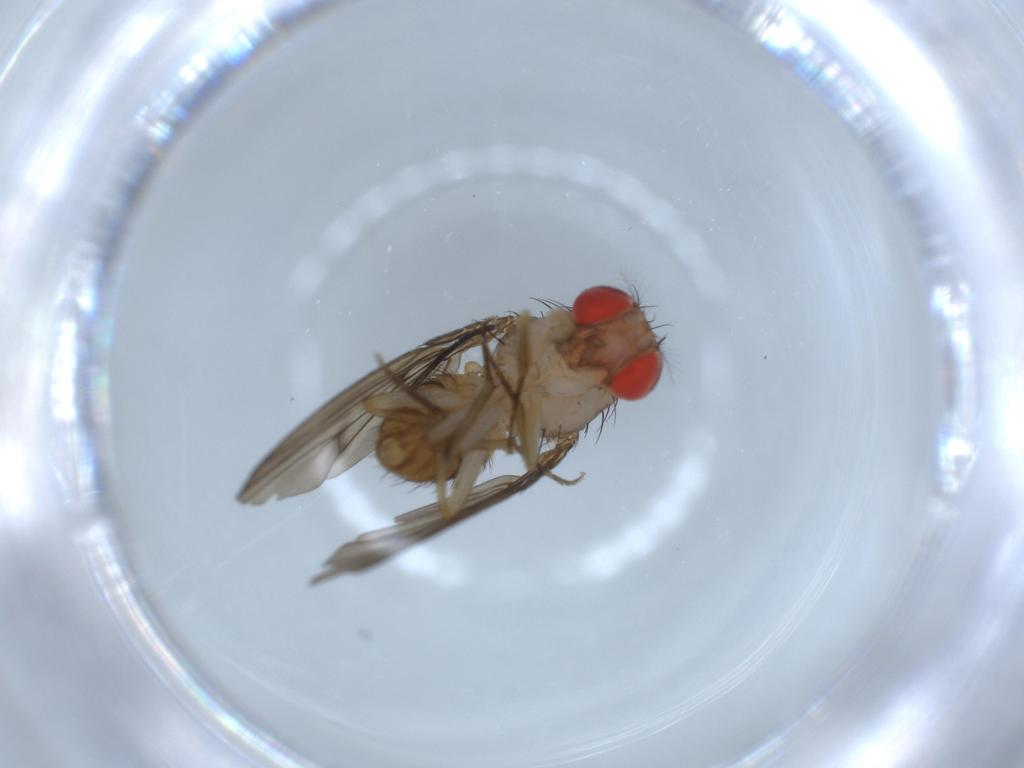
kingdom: Animalia
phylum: Arthropoda
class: Insecta
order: Diptera
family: Drosophilidae
